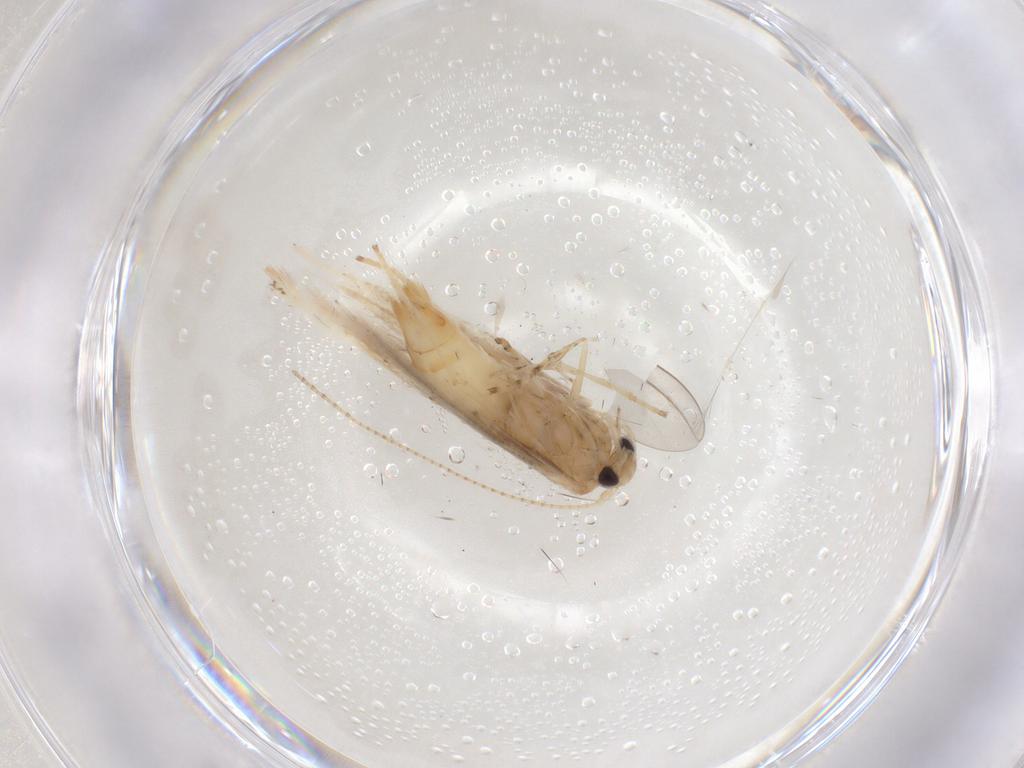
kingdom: Animalia
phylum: Arthropoda
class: Insecta
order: Lepidoptera
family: Gracillariidae
